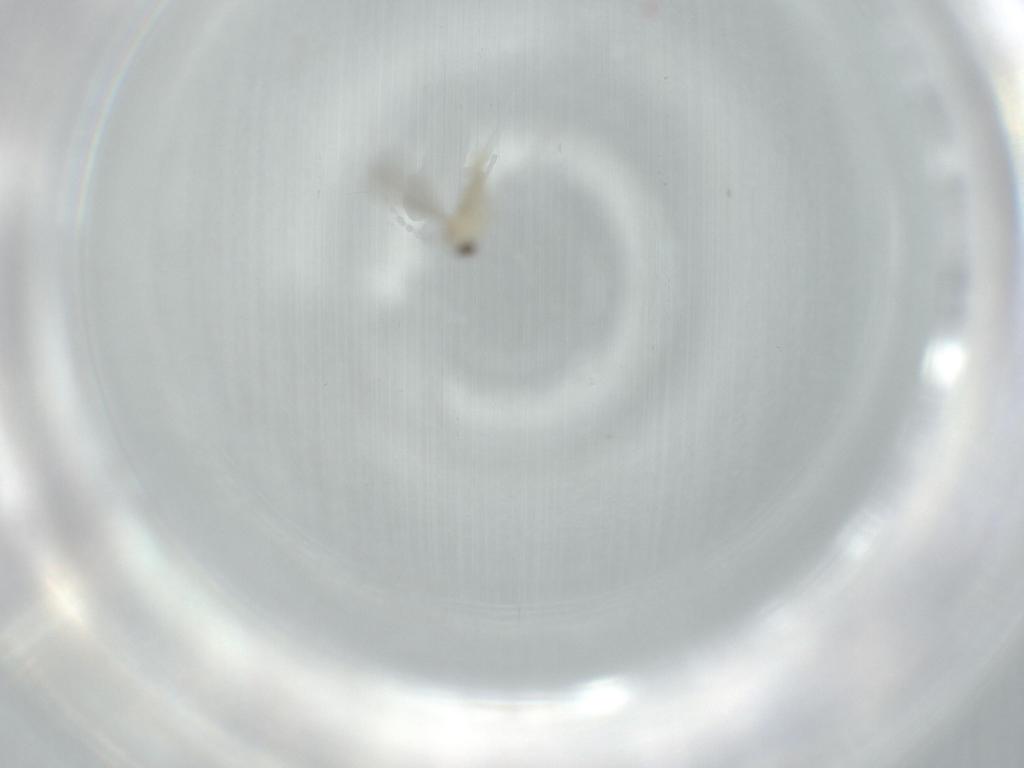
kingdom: Animalia
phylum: Arthropoda
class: Insecta
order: Diptera
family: Cecidomyiidae
